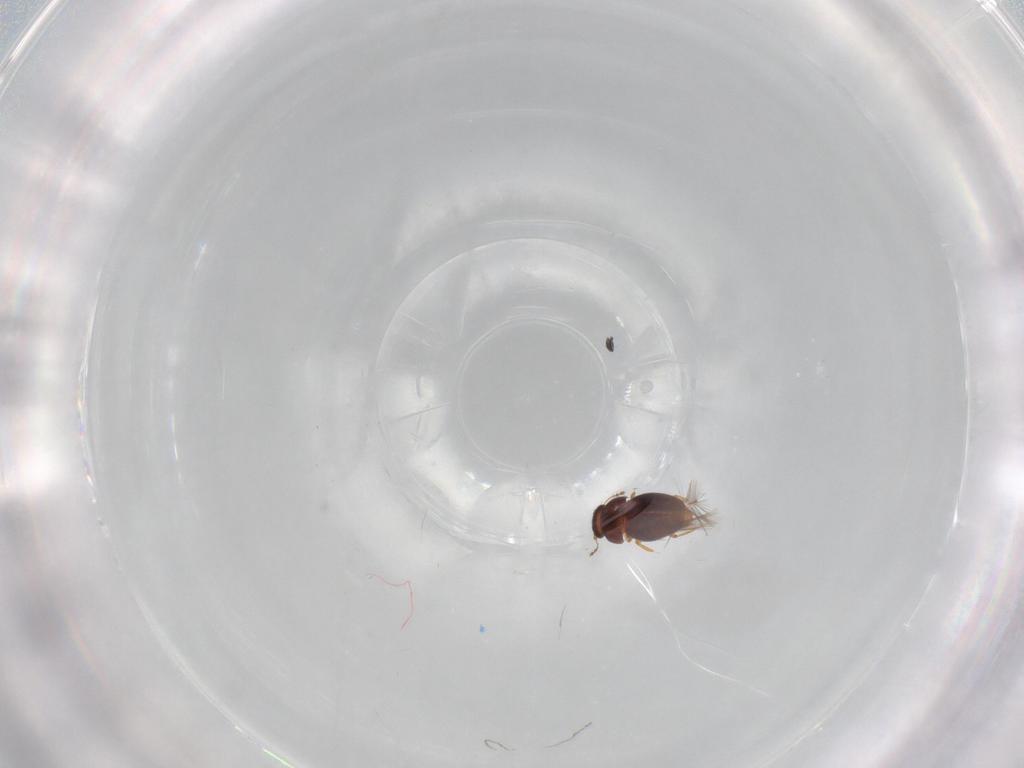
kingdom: Animalia
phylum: Arthropoda
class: Insecta
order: Coleoptera
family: Ptiliidae
